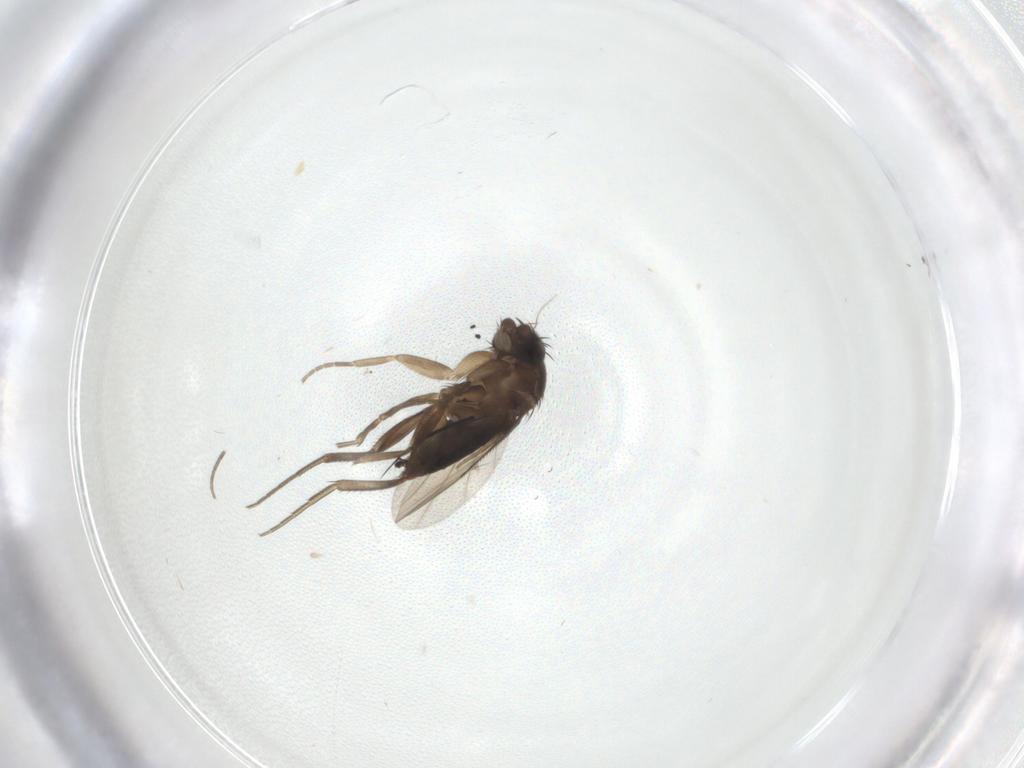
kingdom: Animalia
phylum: Arthropoda
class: Insecta
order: Diptera
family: Phoridae
